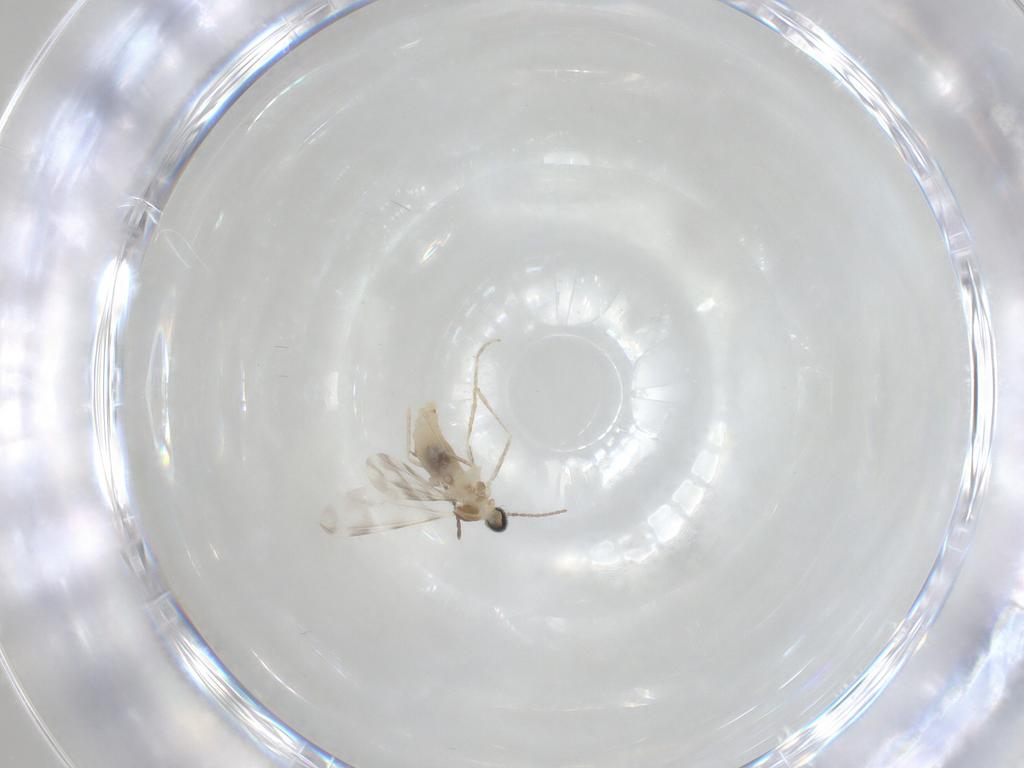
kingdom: Animalia
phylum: Arthropoda
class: Insecta
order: Diptera
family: Cecidomyiidae
